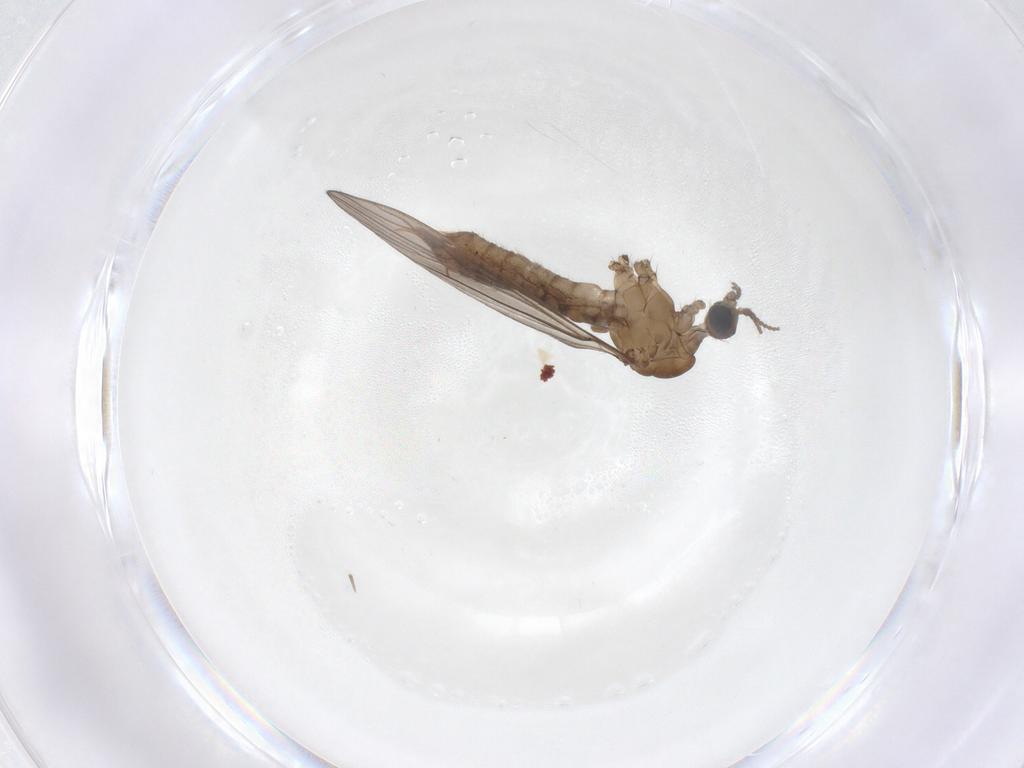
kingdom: Animalia
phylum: Arthropoda
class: Insecta
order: Diptera
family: Limoniidae
